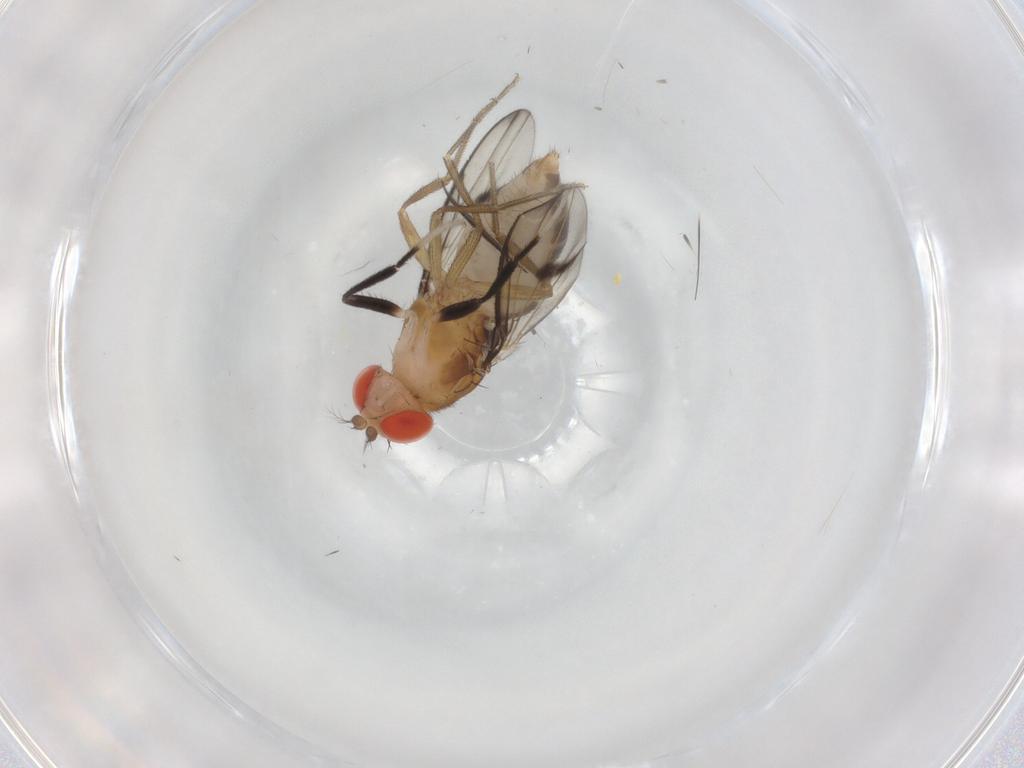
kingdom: Animalia
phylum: Arthropoda
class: Insecta
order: Diptera
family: Drosophilidae
